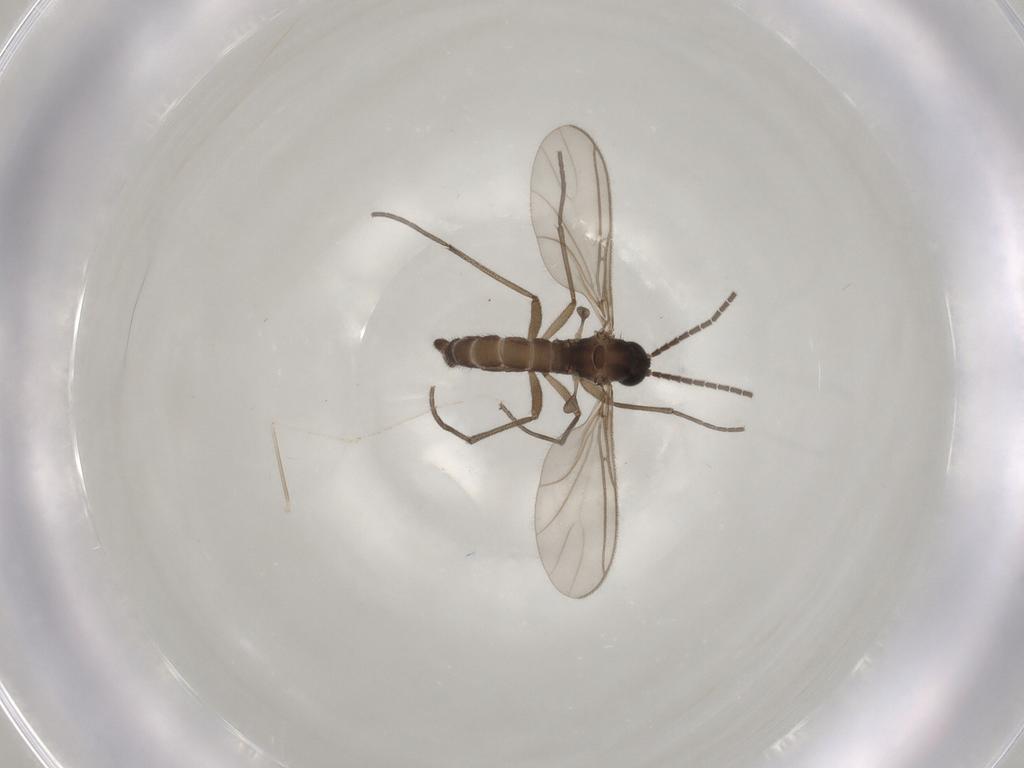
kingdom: Animalia
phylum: Arthropoda
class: Insecta
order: Diptera
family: Sciaridae
